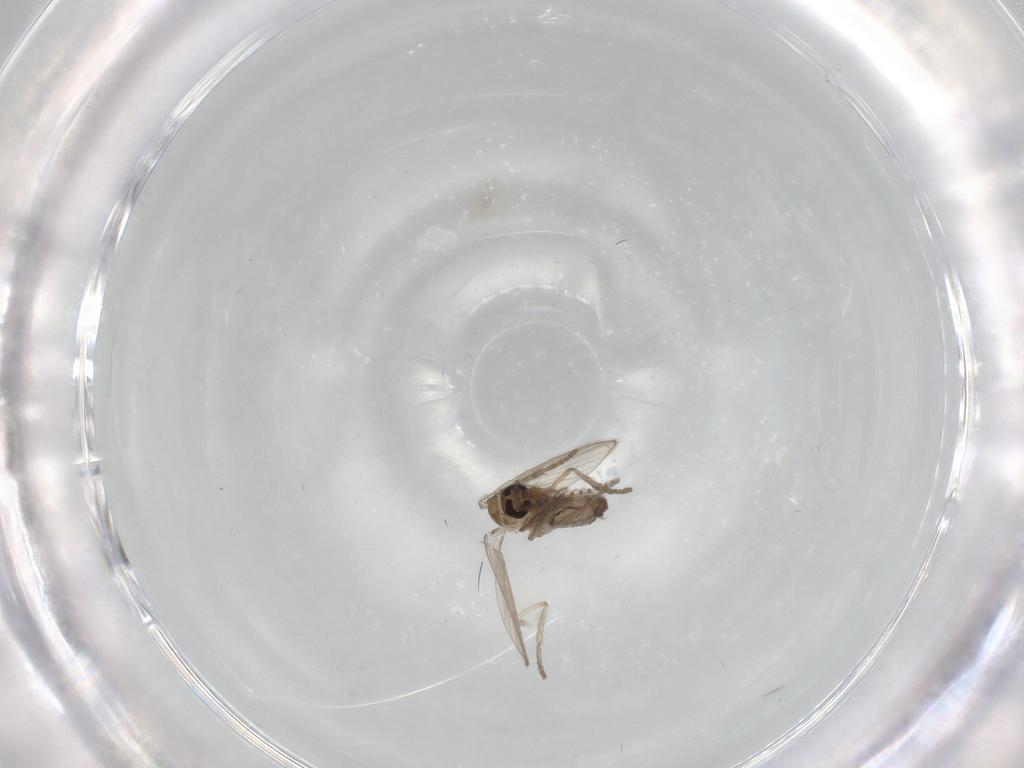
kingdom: Animalia
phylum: Arthropoda
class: Insecta
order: Diptera
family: Psychodidae
